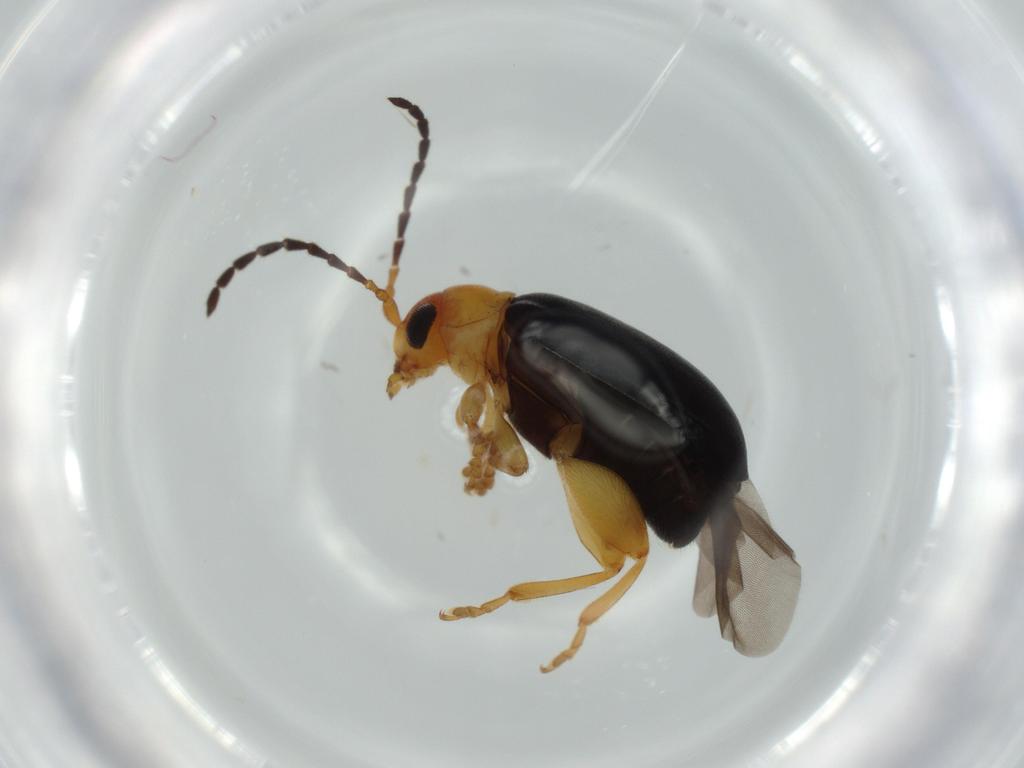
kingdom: Animalia
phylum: Arthropoda
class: Insecta
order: Coleoptera
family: Chrysomelidae
